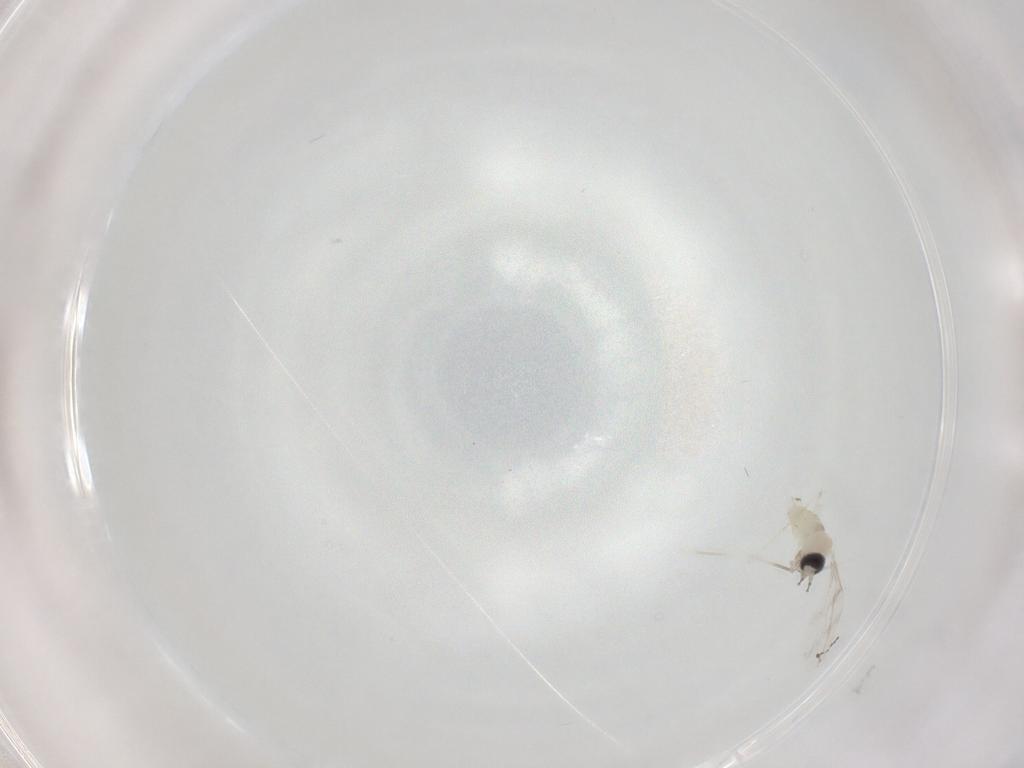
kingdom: Animalia
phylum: Arthropoda
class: Insecta
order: Diptera
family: Cecidomyiidae
